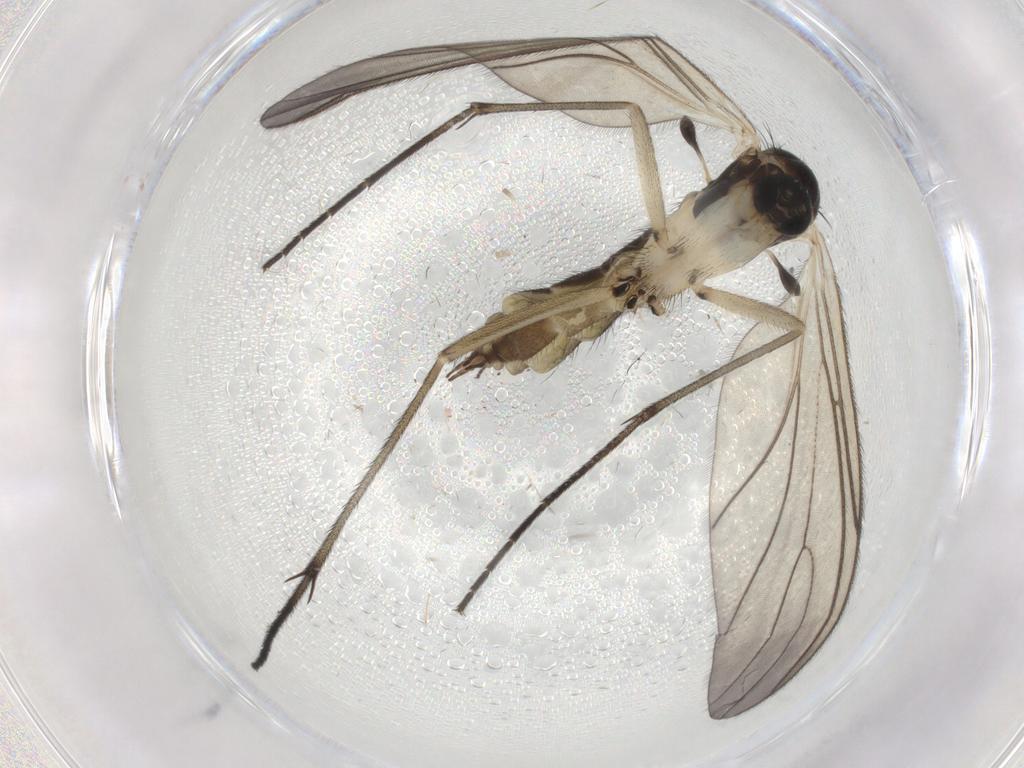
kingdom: Animalia
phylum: Arthropoda
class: Insecta
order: Diptera
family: Sciaridae
